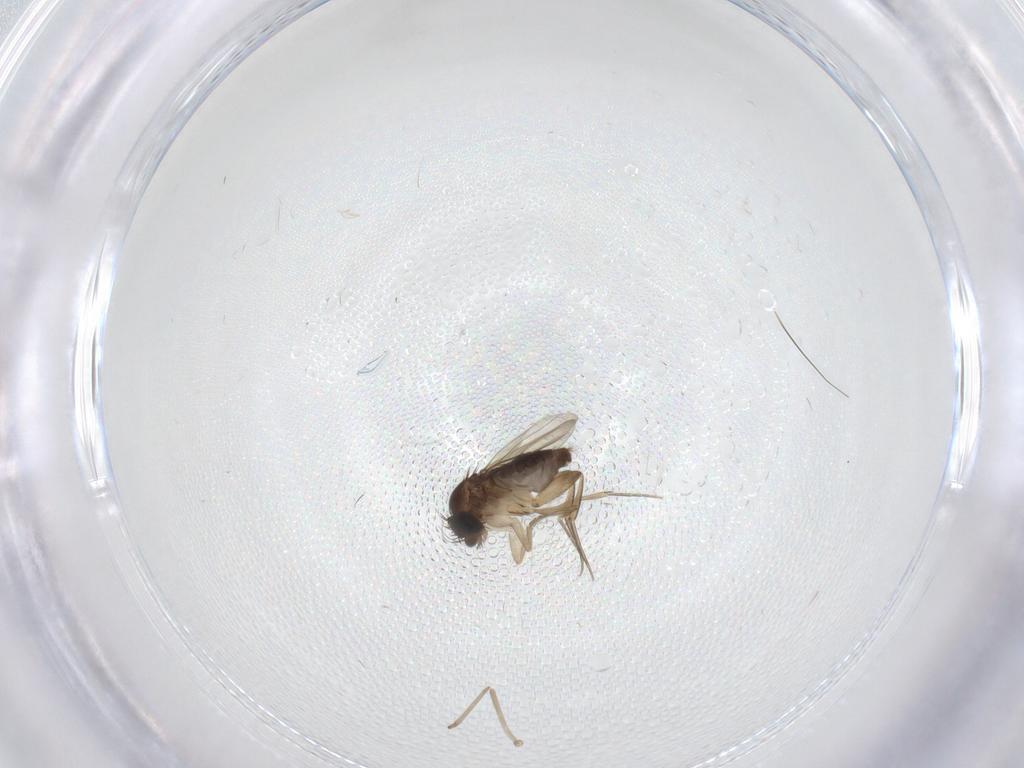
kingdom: Animalia
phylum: Arthropoda
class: Insecta
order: Diptera
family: Phoridae
